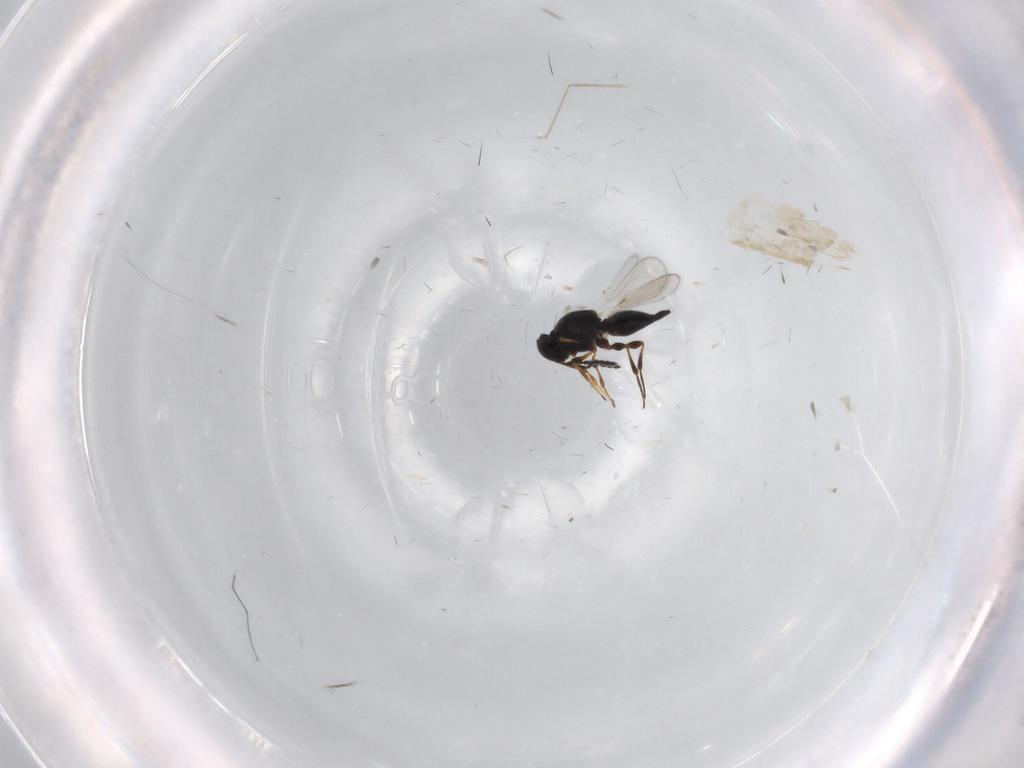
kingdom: Animalia
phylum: Arthropoda
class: Insecta
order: Hymenoptera
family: Platygastridae
